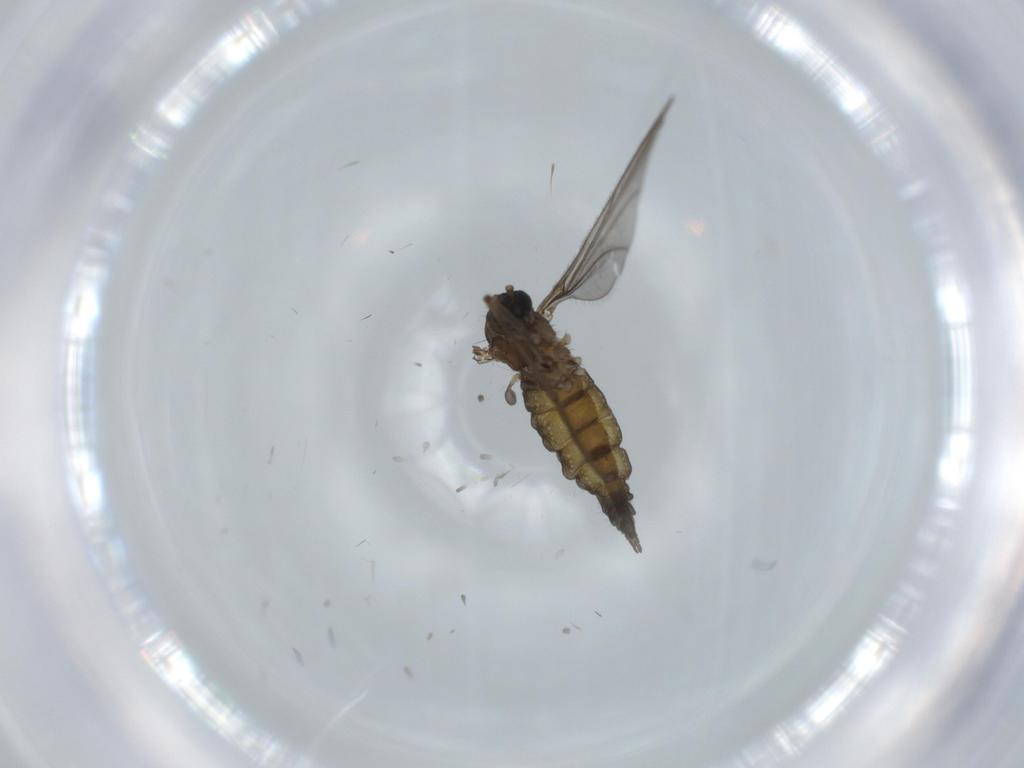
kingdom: Animalia
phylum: Arthropoda
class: Insecta
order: Diptera
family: Sciaridae
